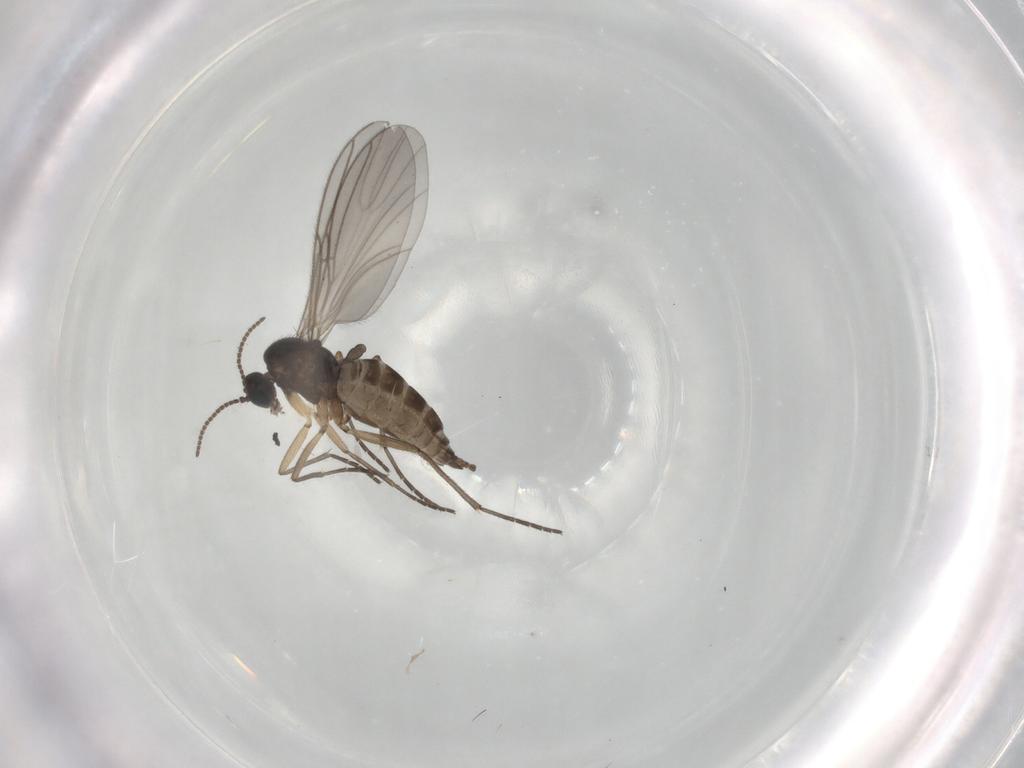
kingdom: Animalia
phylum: Arthropoda
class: Insecta
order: Diptera
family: Sciaridae
